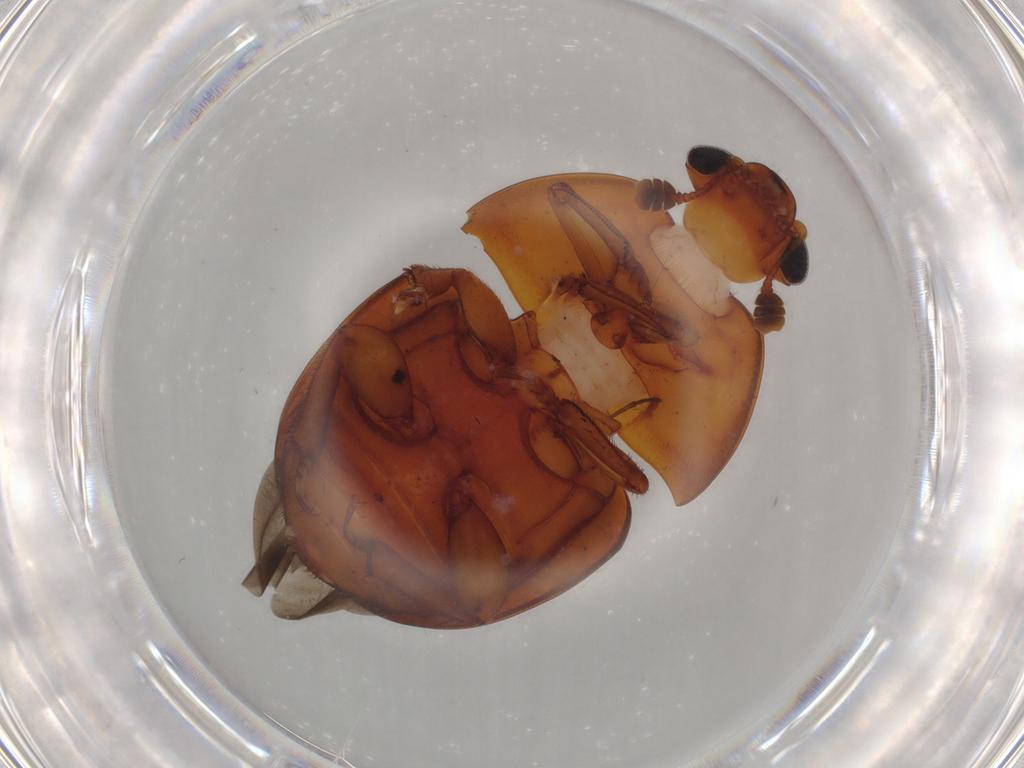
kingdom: Animalia
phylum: Arthropoda
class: Insecta
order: Coleoptera
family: Nitidulidae
